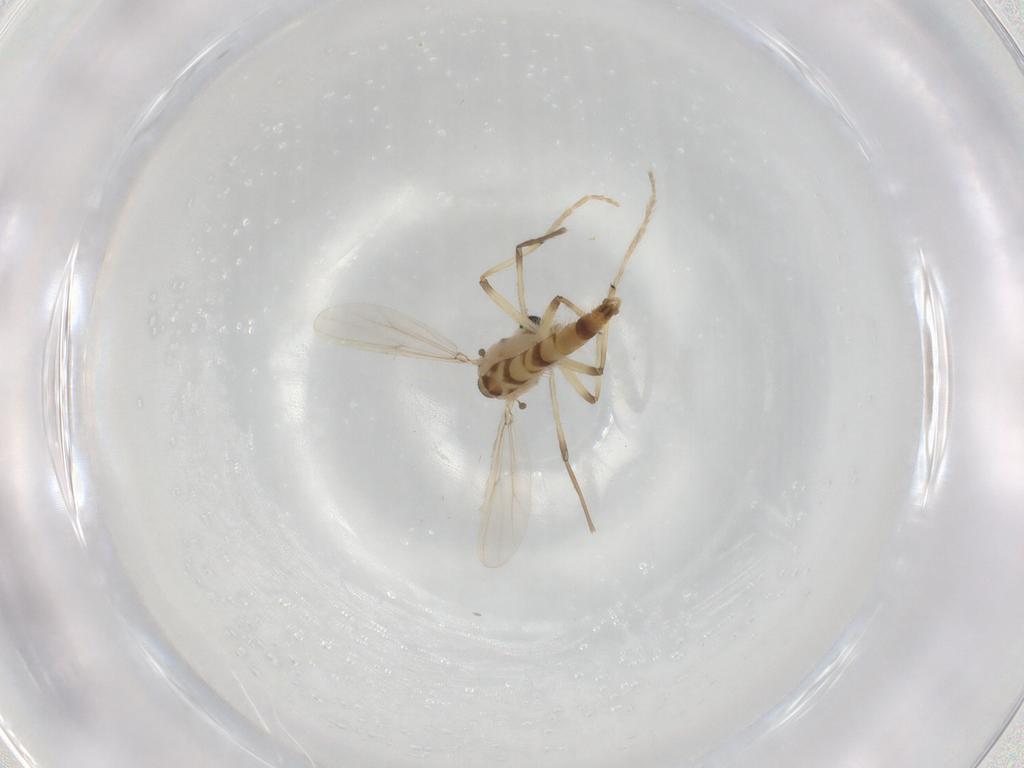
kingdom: Animalia
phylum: Arthropoda
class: Insecta
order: Diptera
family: Chironomidae
